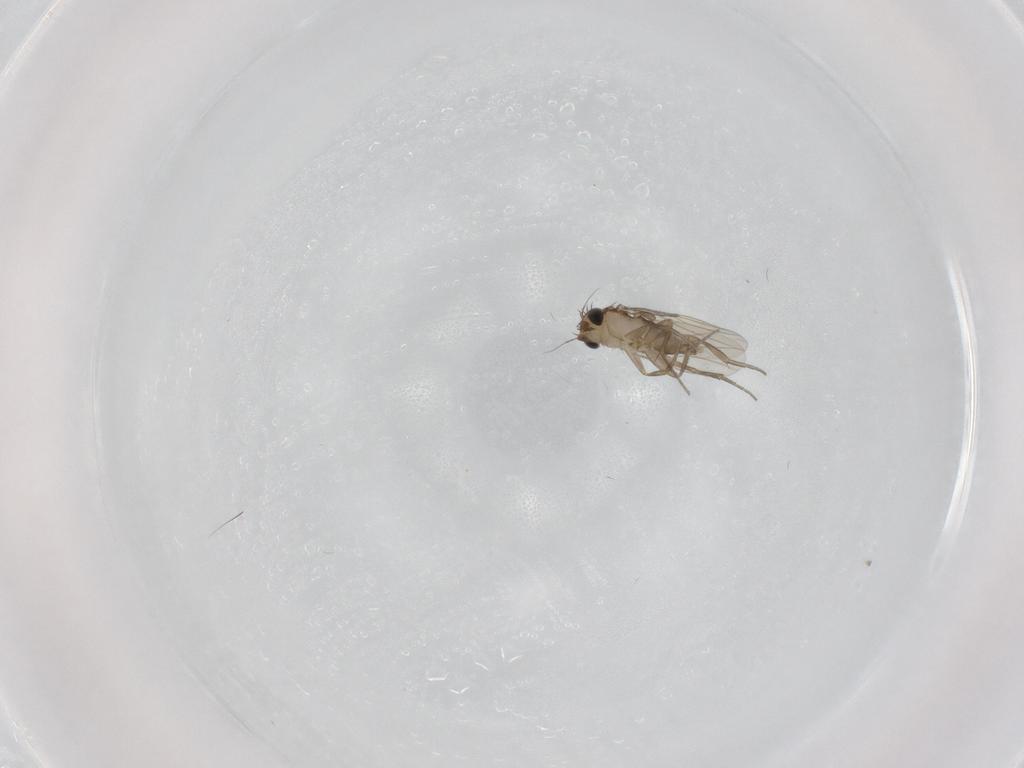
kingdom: Animalia
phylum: Arthropoda
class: Insecta
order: Diptera
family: Phoridae
